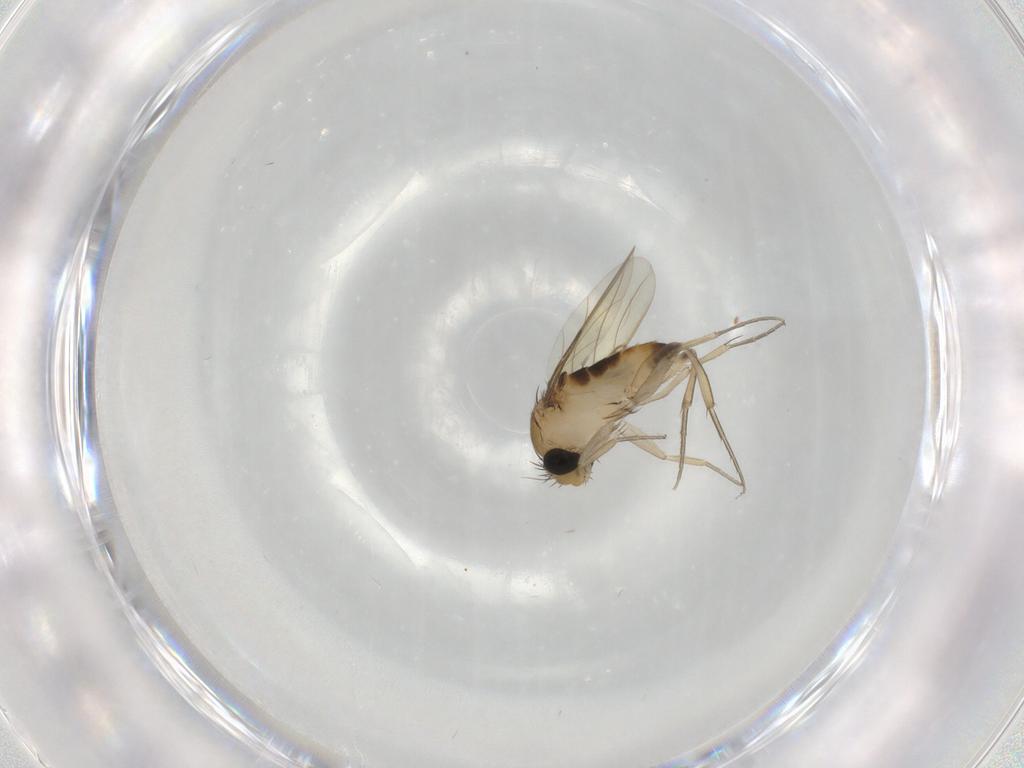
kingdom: Animalia
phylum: Arthropoda
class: Insecta
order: Diptera
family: Phoridae
